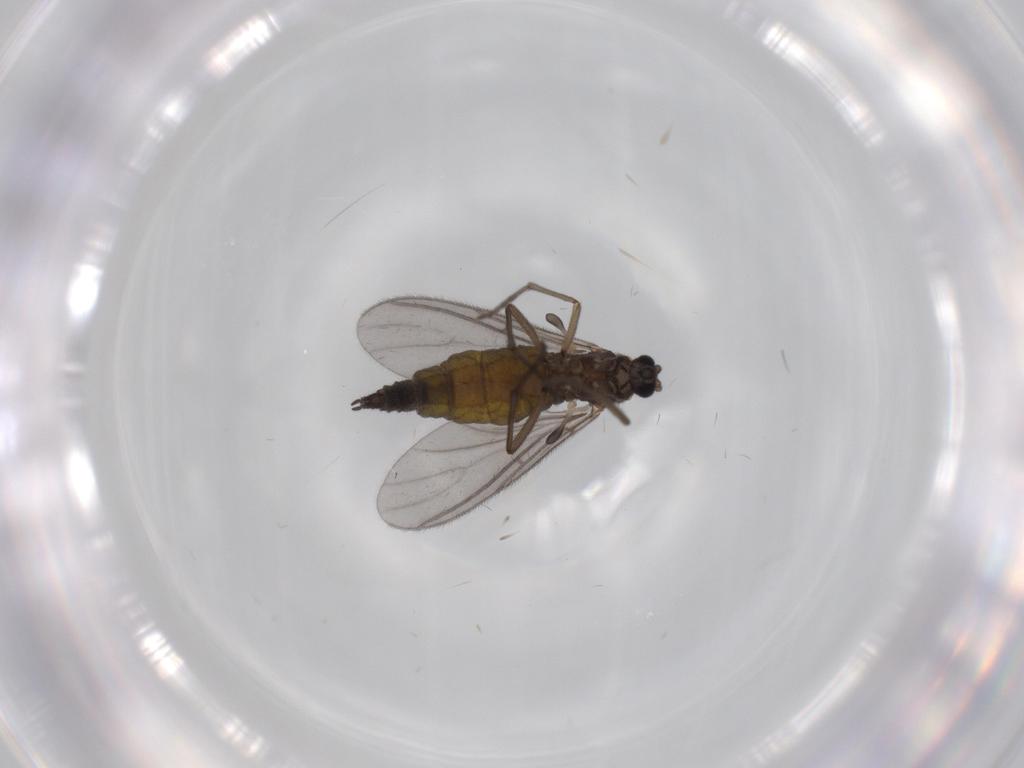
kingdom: Animalia
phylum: Arthropoda
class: Insecta
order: Diptera
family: Sciaridae
